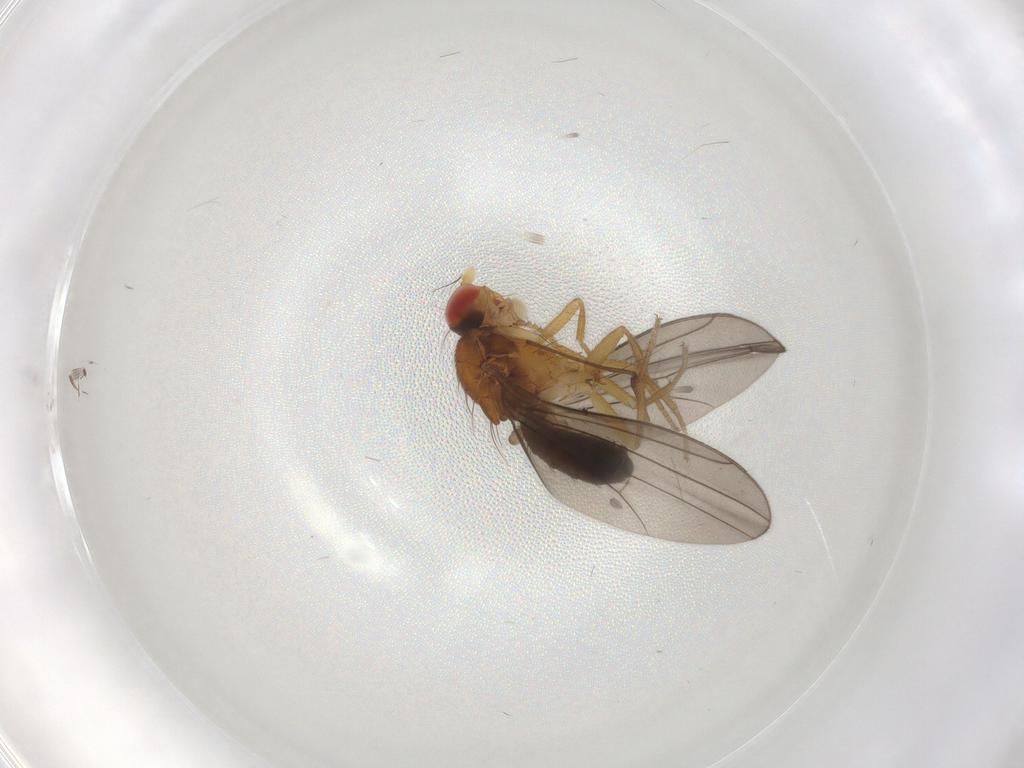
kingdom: Animalia
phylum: Arthropoda
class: Insecta
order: Diptera
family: Drosophilidae
